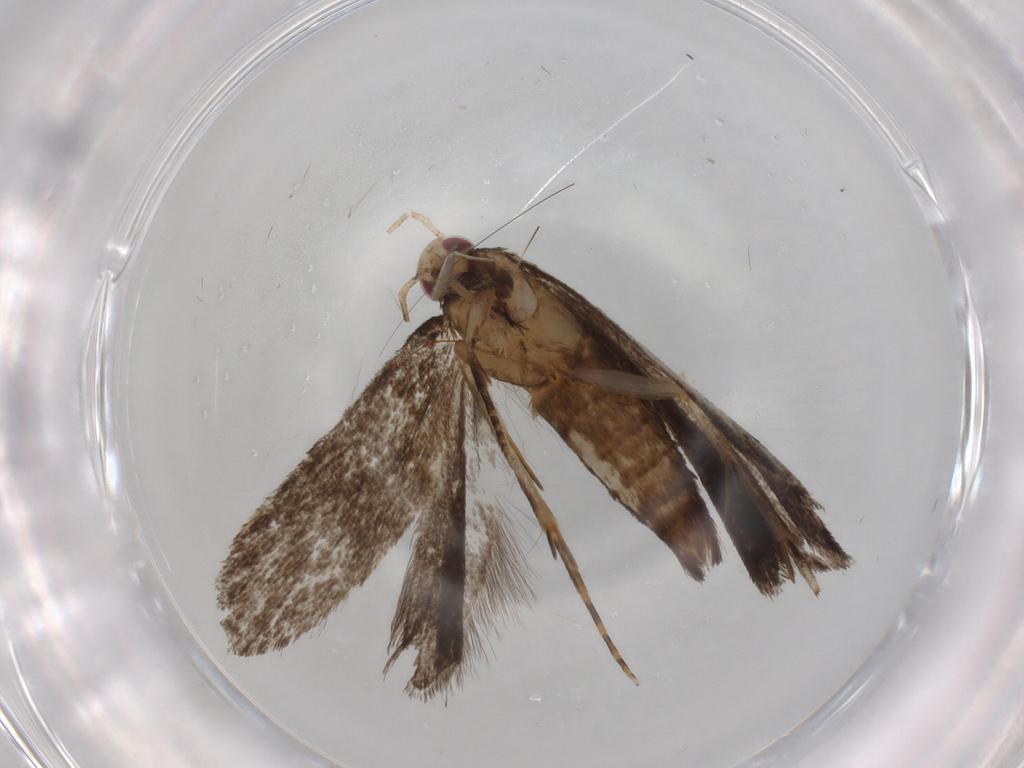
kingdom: Animalia
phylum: Arthropoda
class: Insecta
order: Lepidoptera
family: Gelechiidae
